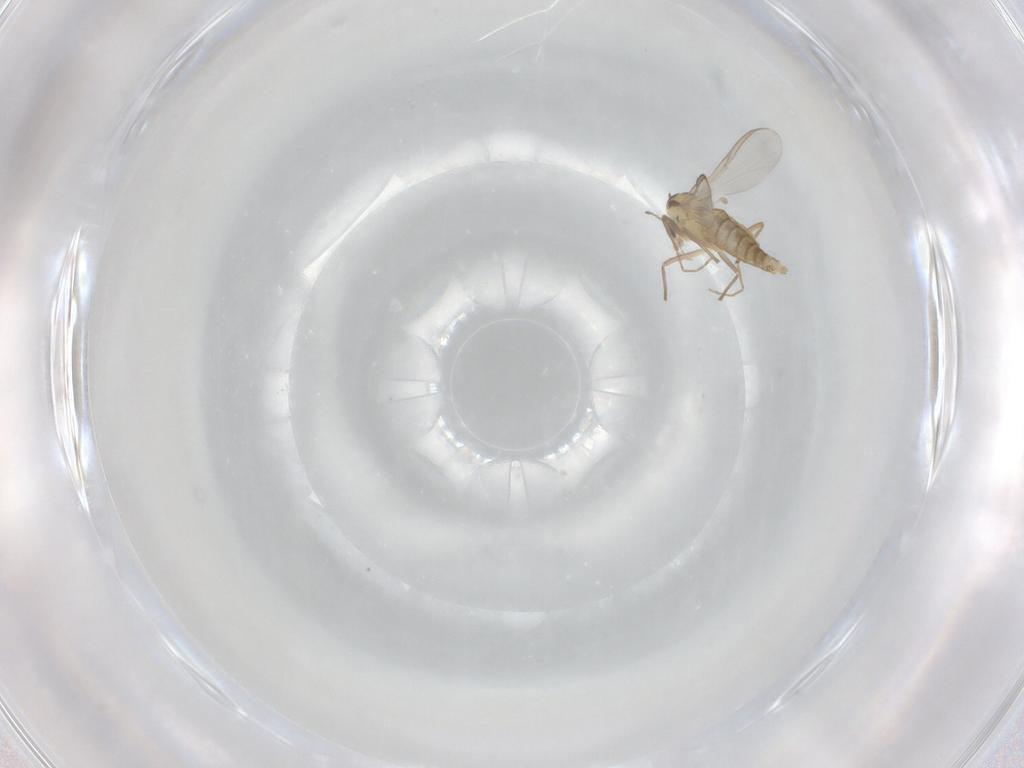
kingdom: Animalia
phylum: Arthropoda
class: Insecta
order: Diptera
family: Chironomidae
